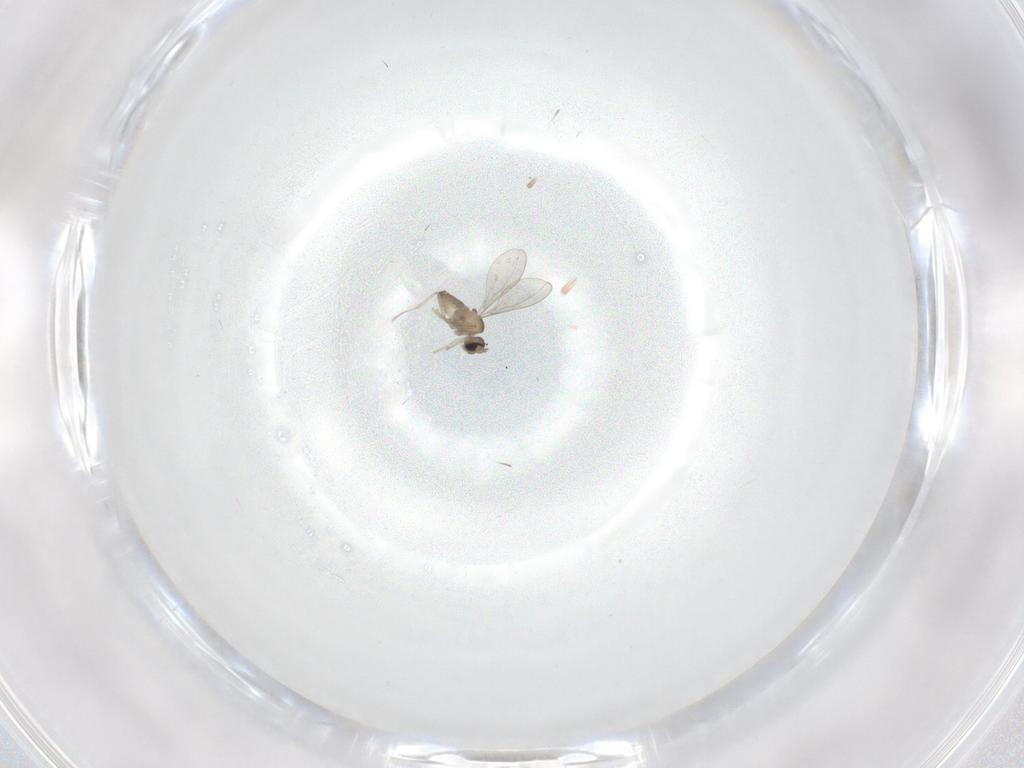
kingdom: Animalia
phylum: Arthropoda
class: Insecta
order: Diptera
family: Cecidomyiidae
